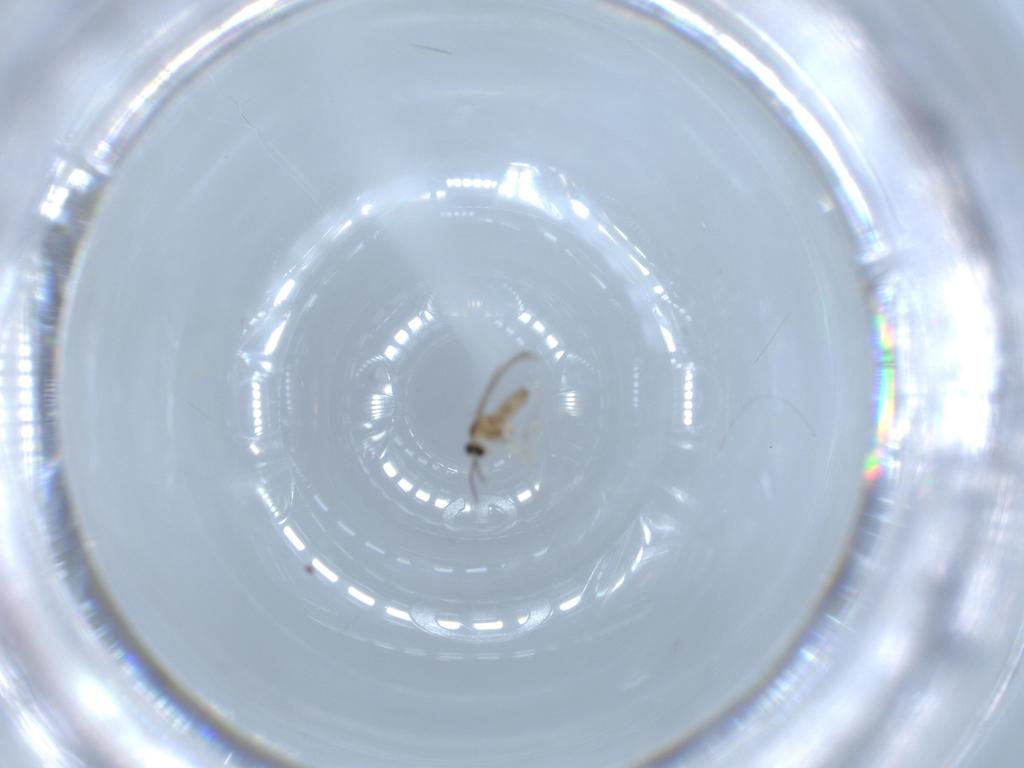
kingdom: Animalia
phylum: Arthropoda
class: Insecta
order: Diptera
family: Cecidomyiidae
